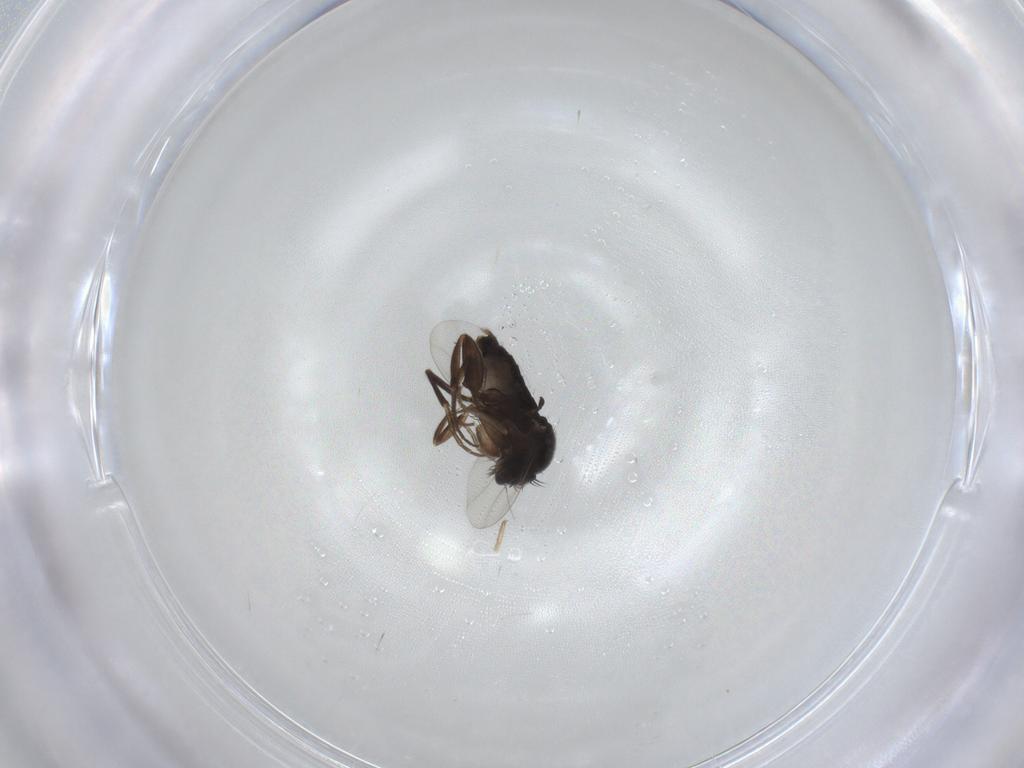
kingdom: Animalia
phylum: Arthropoda
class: Insecta
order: Diptera
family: Phoridae
